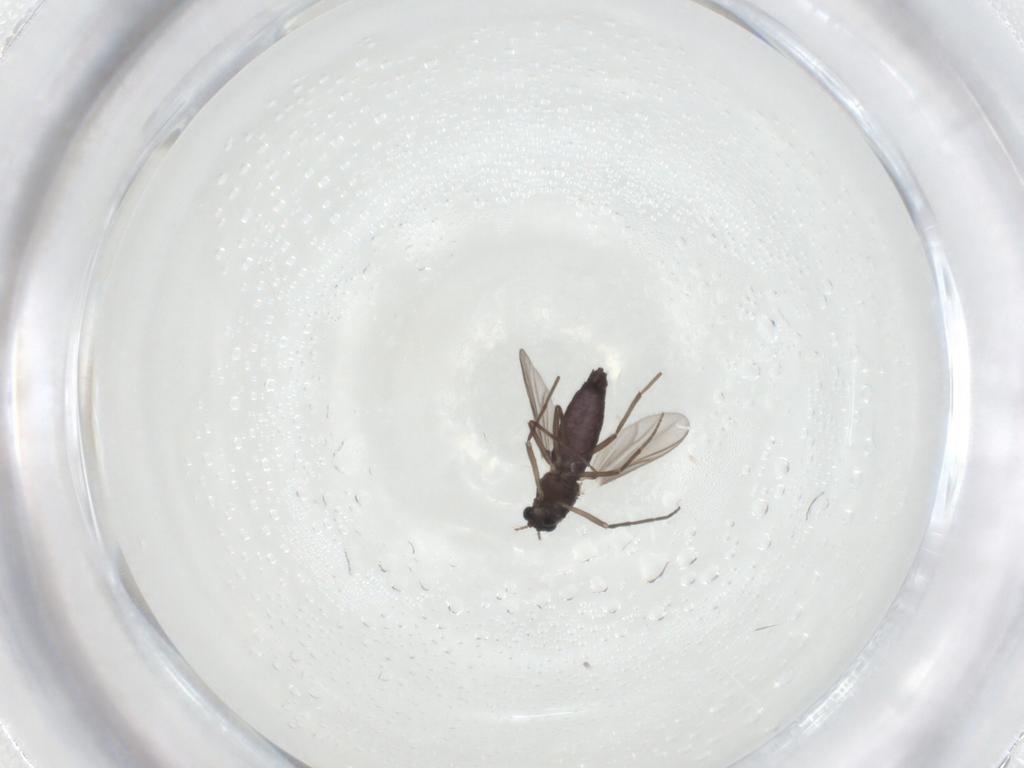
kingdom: Animalia
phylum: Arthropoda
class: Insecta
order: Diptera
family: Chironomidae
